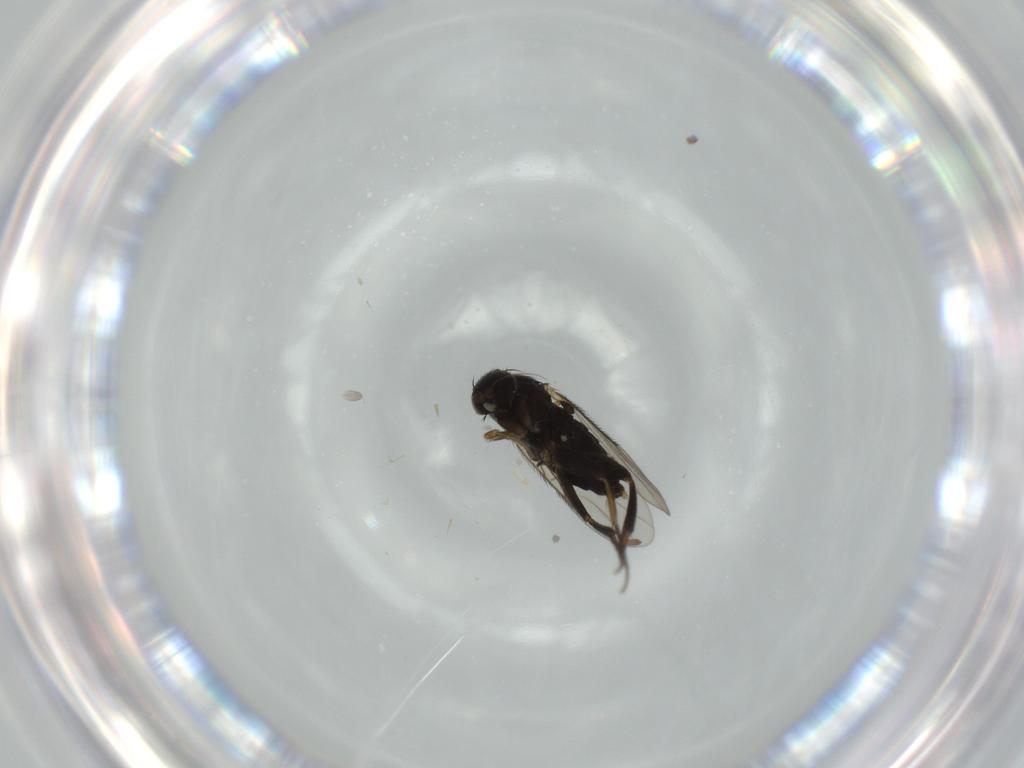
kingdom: Animalia
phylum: Arthropoda
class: Insecta
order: Diptera
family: Phoridae
